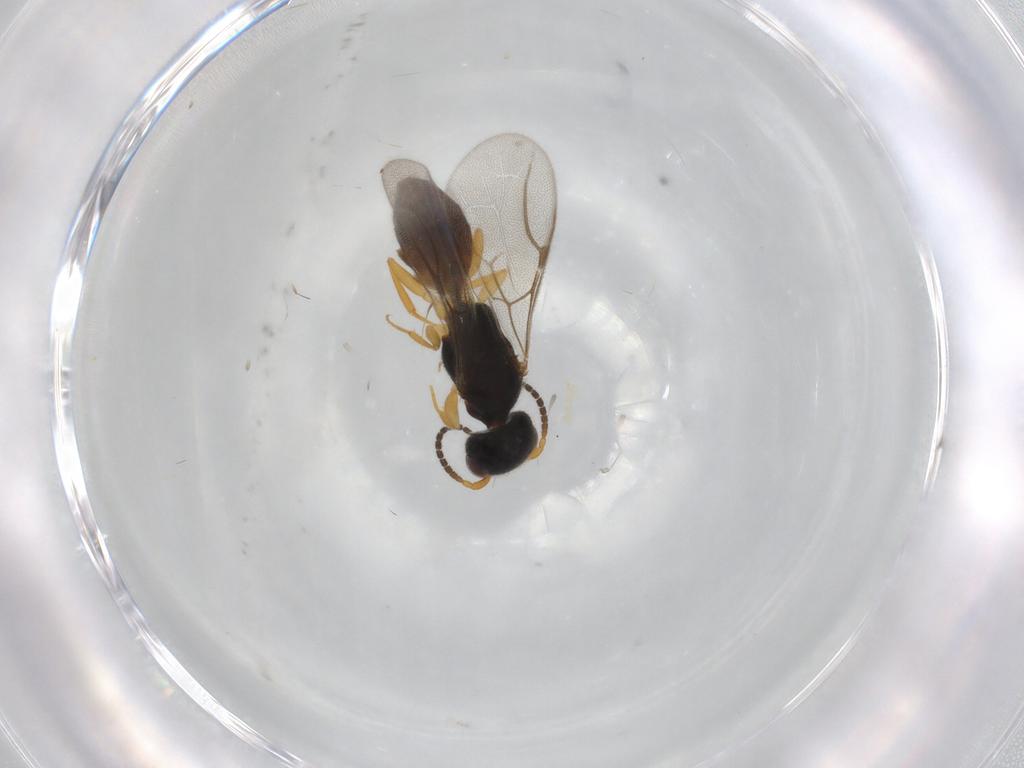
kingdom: Animalia
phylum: Arthropoda
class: Insecta
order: Hymenoptera
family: Formicidae
